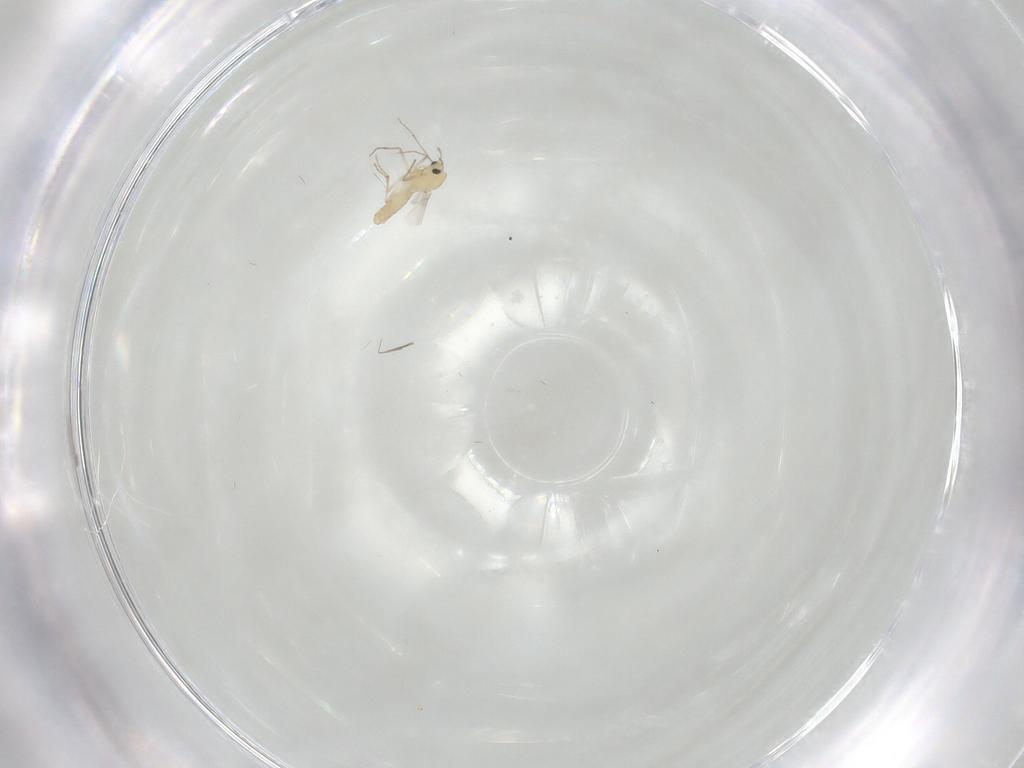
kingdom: Animalia
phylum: Arthropoda
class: Insecta
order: Diptera
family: Chironomidae
